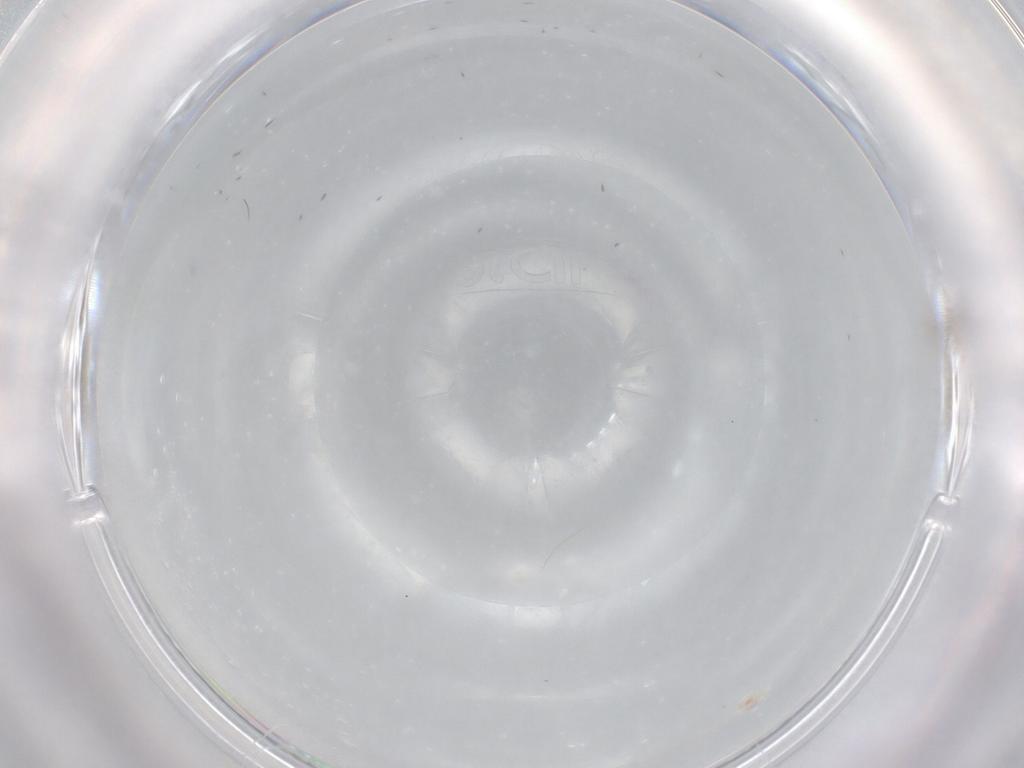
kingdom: Animalia
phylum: Arthropoda
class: Insecta
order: Diptera
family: Cecidomyiidae
